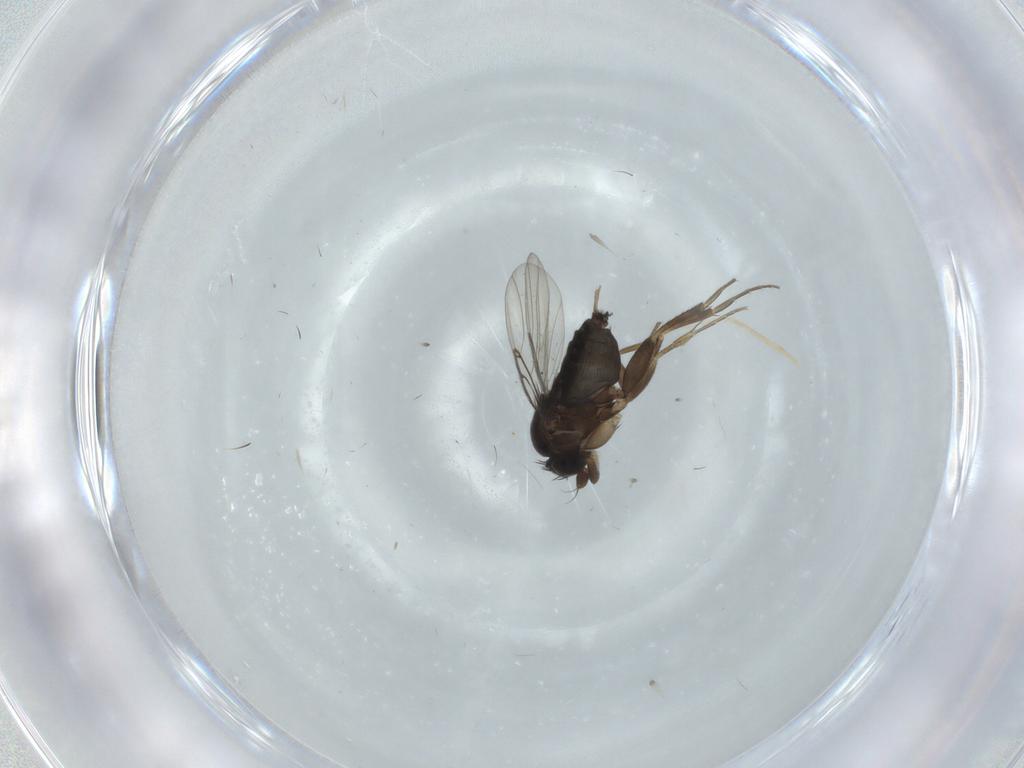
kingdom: Animalia
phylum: Arthropoda
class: Insecta
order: Diptera
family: Phoridae
